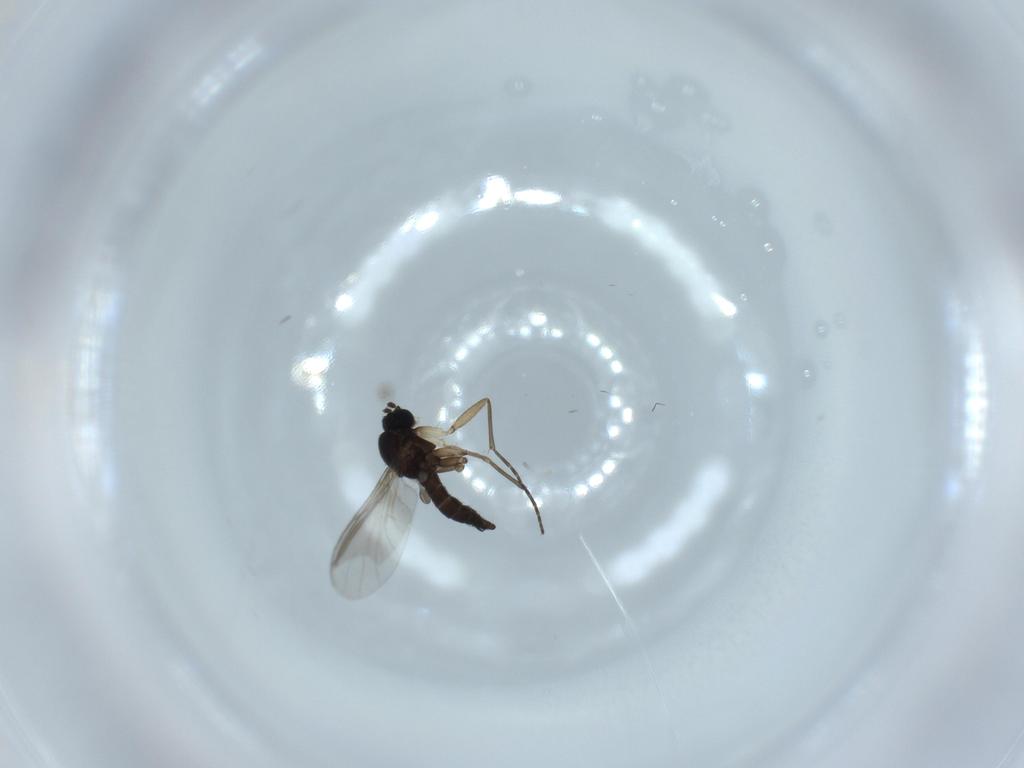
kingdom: Animalia
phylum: Arthropoda
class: Insecta
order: Diptera
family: Sciaridae
